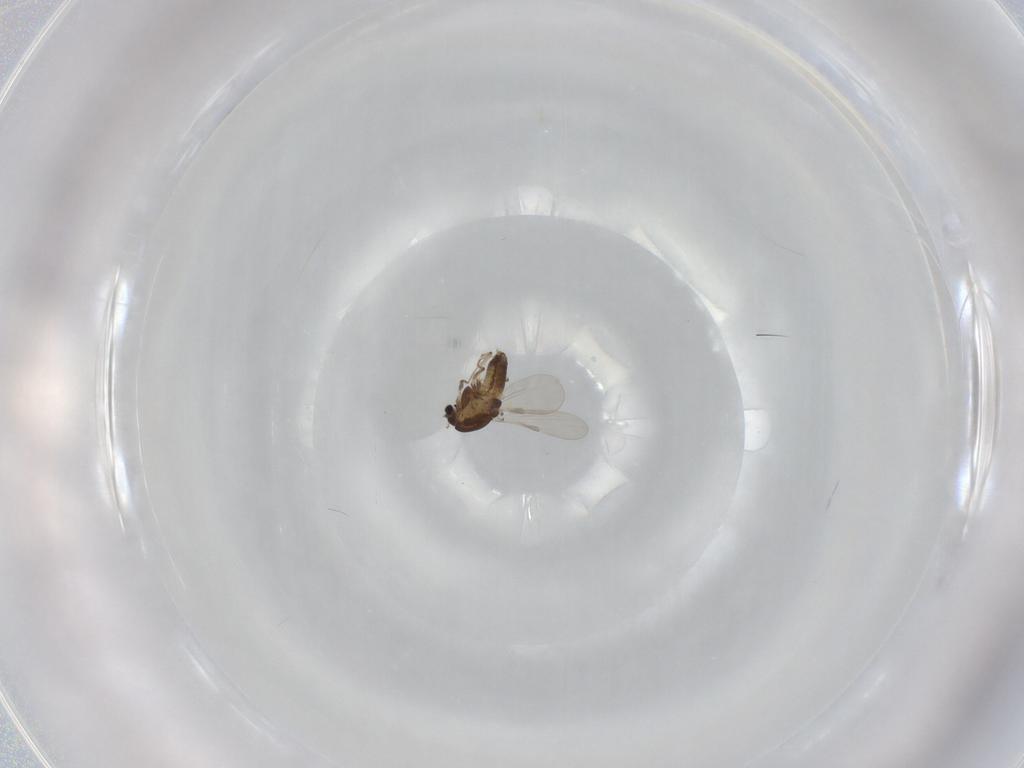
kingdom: Animalia
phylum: Arthropoda
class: Insecta
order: Diptera
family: Chironomidae
